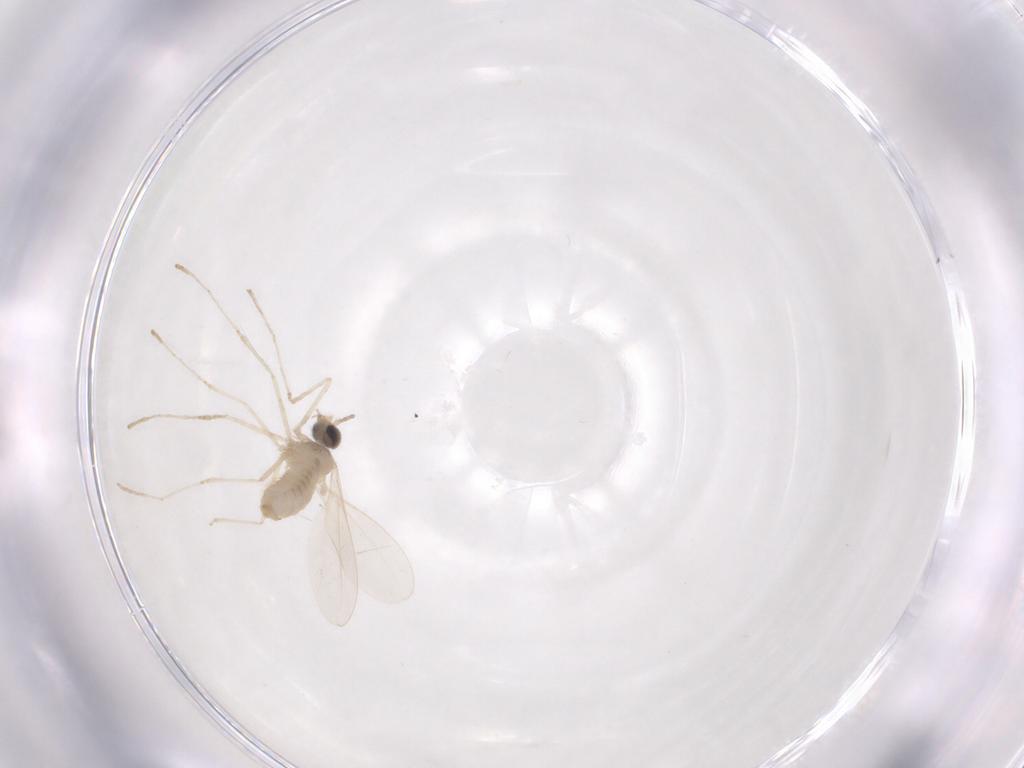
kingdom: Animalia
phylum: Arthropoda
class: Insecta
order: Diptera
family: Cecidomyiidae
